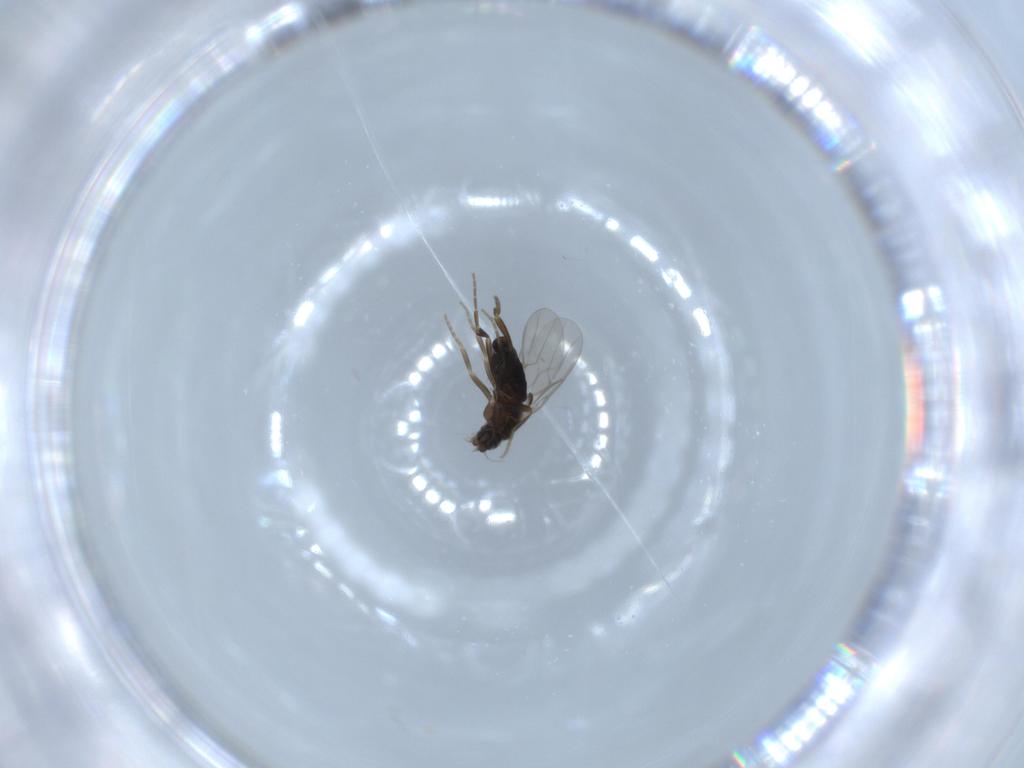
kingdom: Animalia
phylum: Arthropoda
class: Insecta
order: Diptera
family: Phoridae
